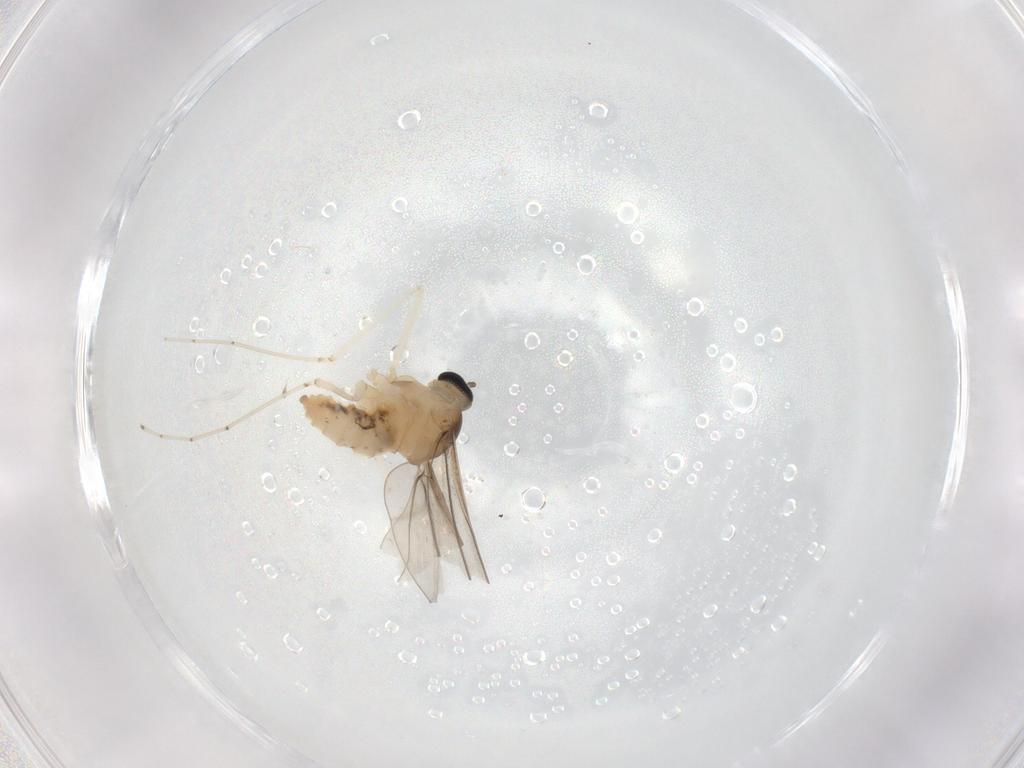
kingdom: Animalia
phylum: Arthropoda
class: Insecta
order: Diptera
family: Cecidomyiidae
